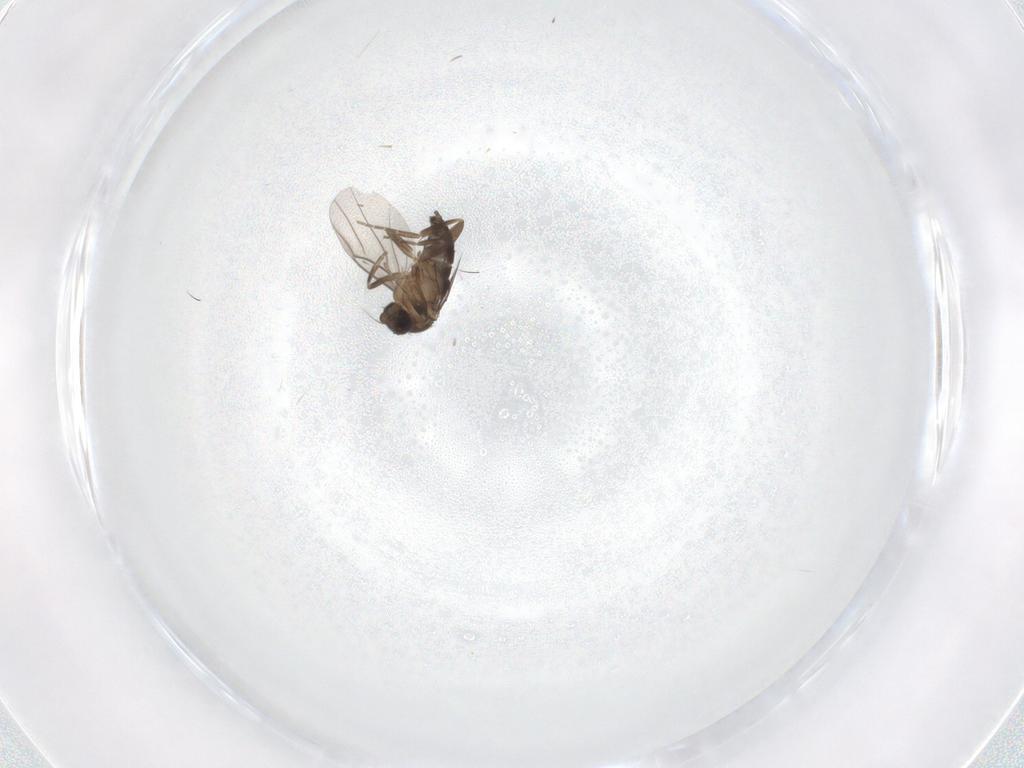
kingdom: Animalia
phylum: Arthropoda
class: Insecta
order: Diptera
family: Phoridae
